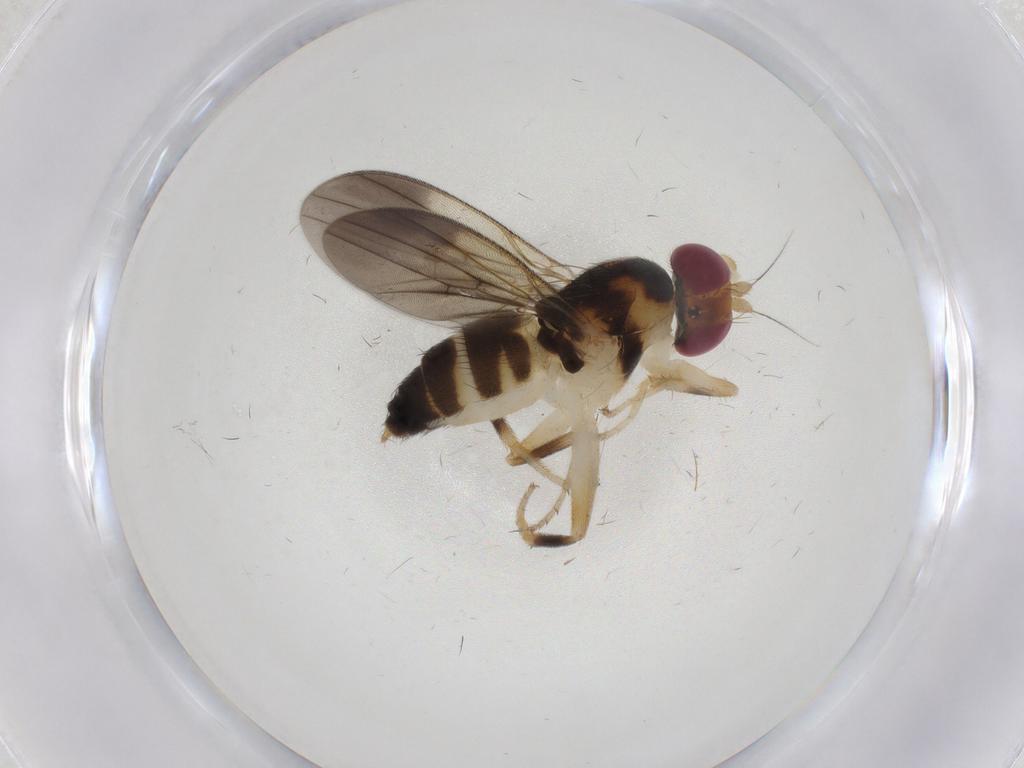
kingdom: Animalia
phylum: Arthropoda
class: Insecta
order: Diptera
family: Clusiidae
